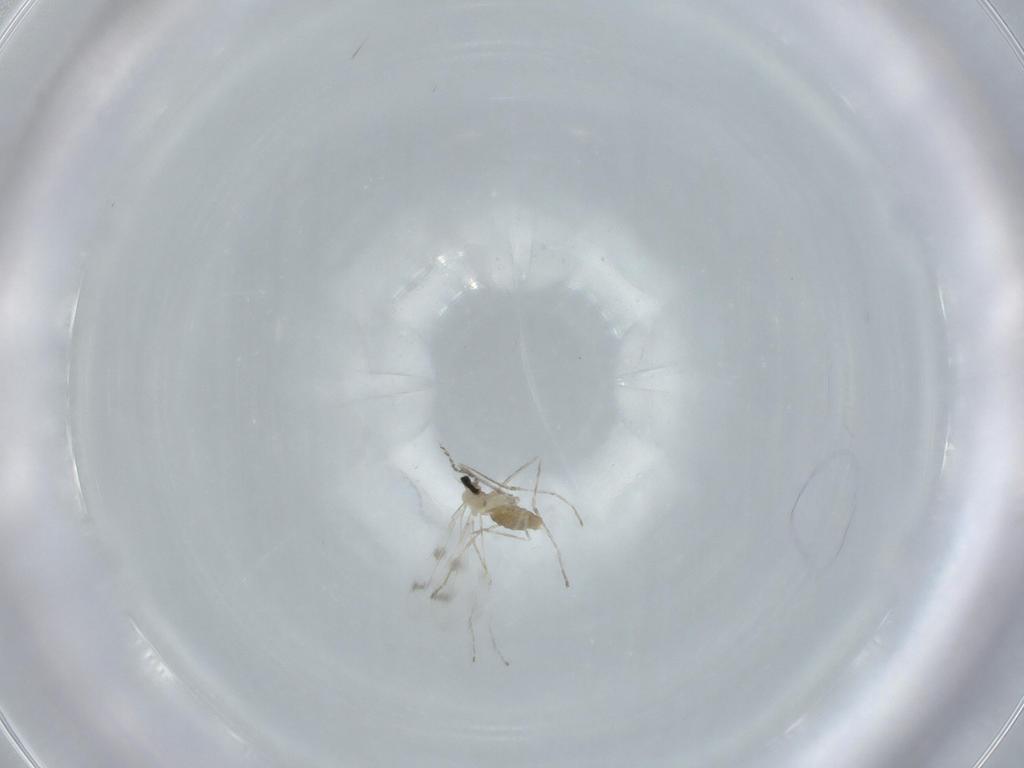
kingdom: Animalia
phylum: Arthropoda
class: Insecta
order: Diptera
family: Cecidomyiidae
